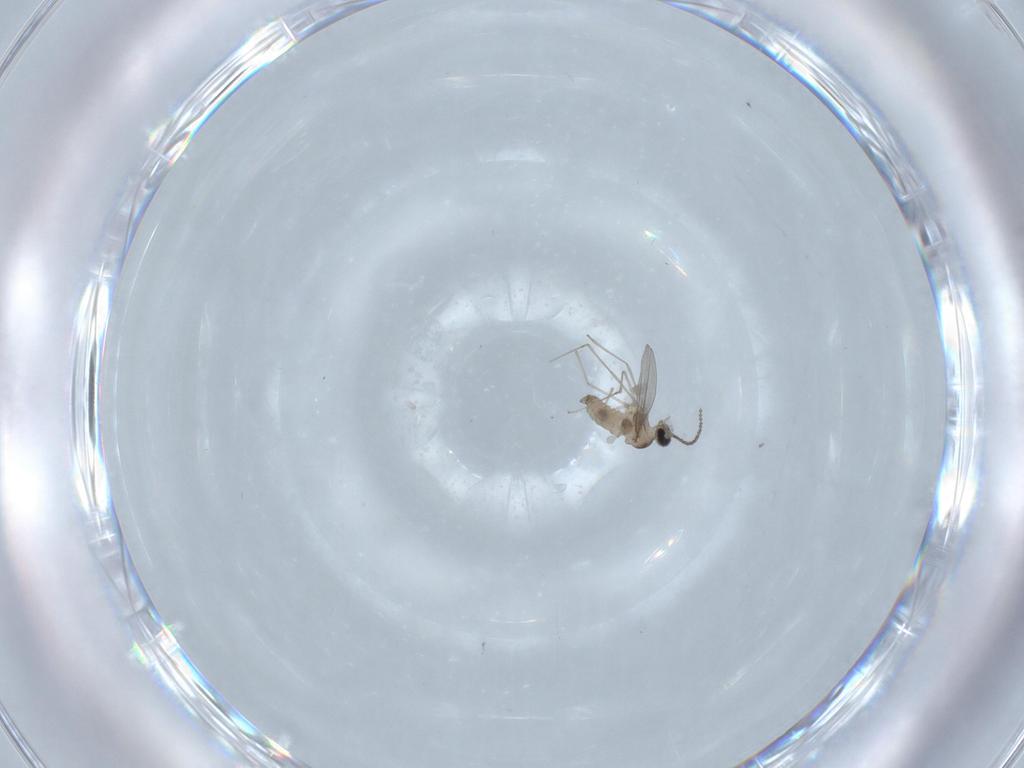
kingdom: Animalia
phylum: Arthropoda
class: Insecta
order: Diptera
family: Cecidomyiidae
